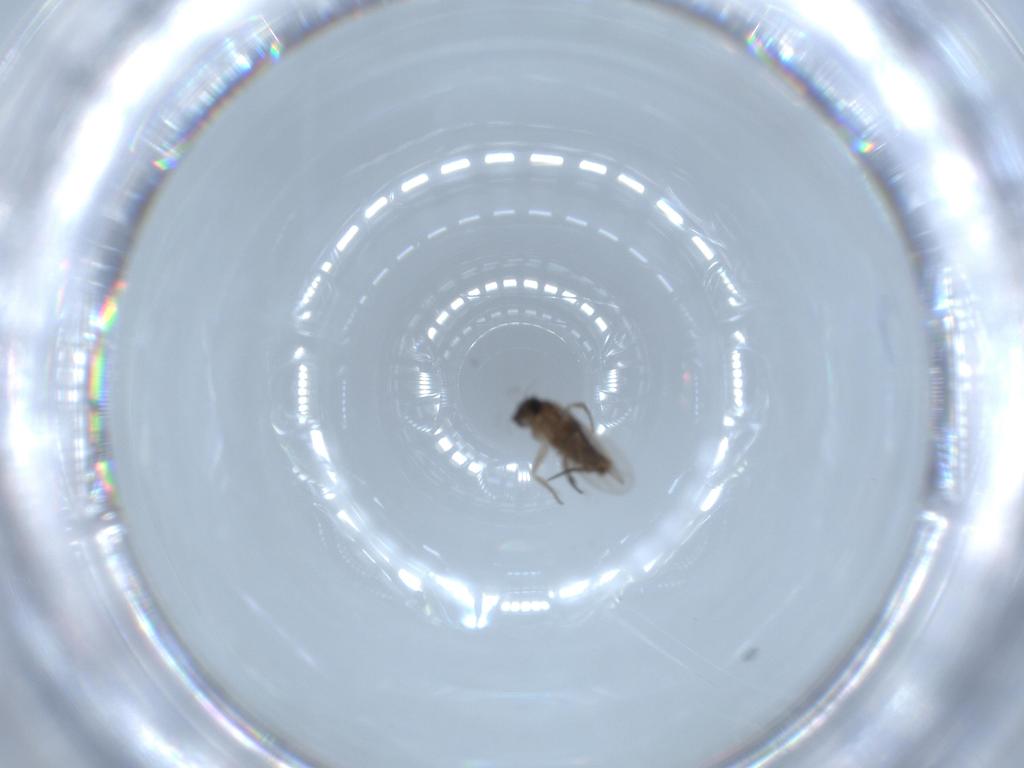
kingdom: Animalia
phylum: Arthropoda
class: Insecta
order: Diptera
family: Phoridae
